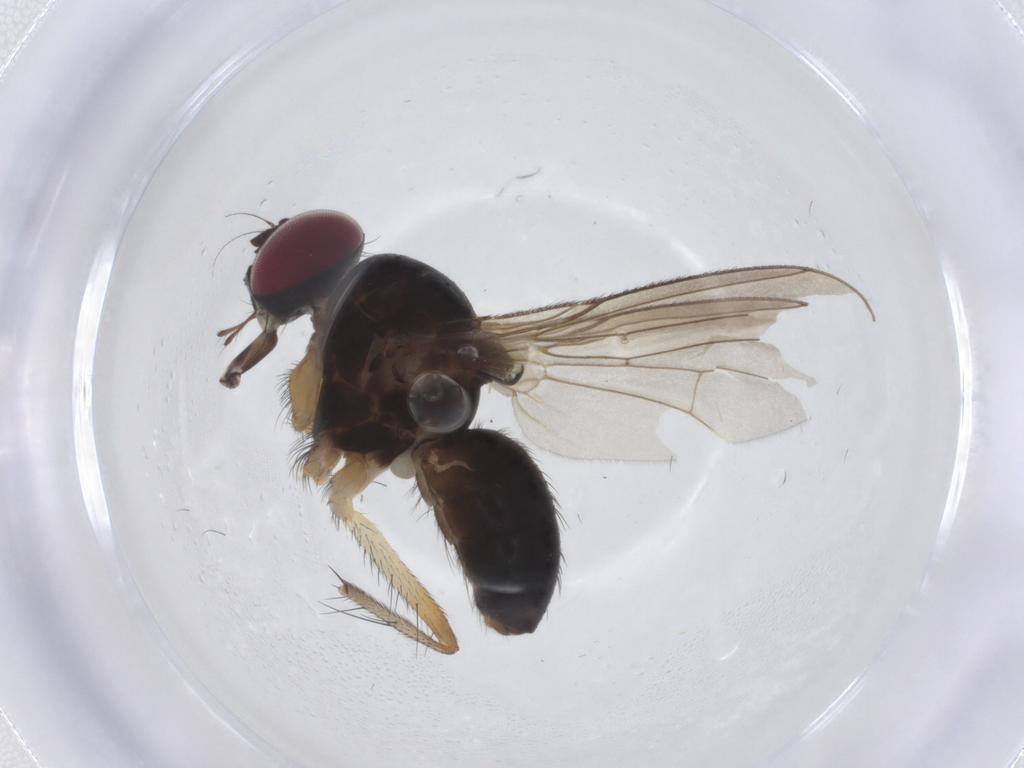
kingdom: Animalia
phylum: Arthropoda
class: Insecta
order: Diptera
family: Anthomyiidae
